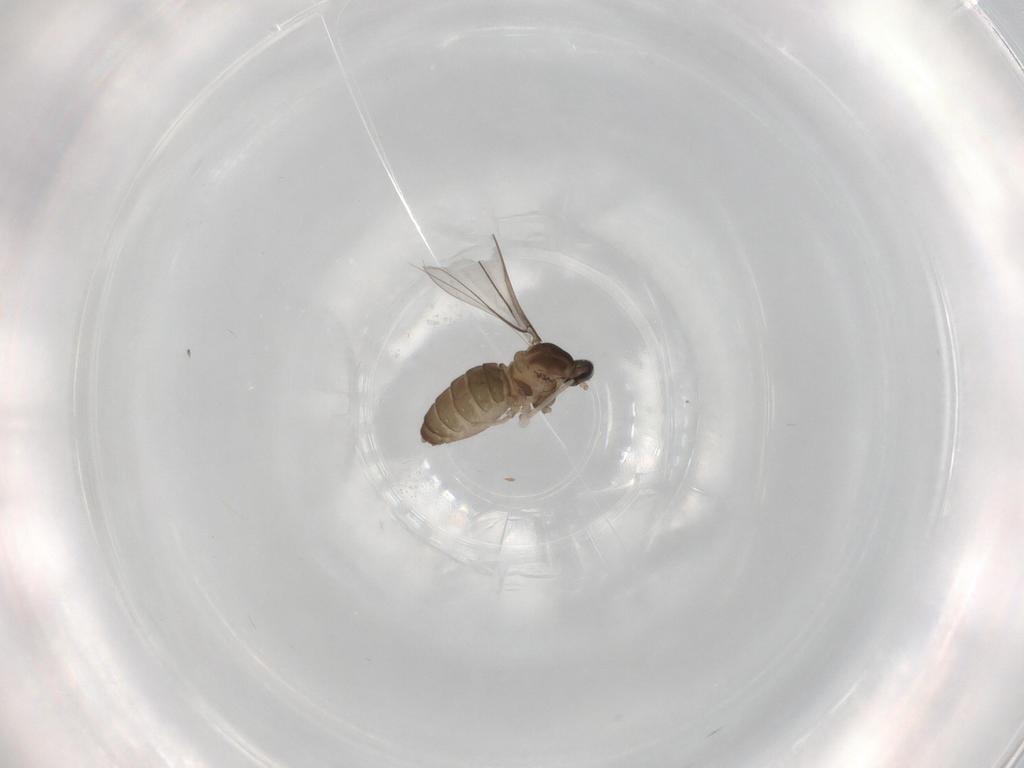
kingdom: Animalia
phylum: Arthropoda
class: Insecta
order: Diptera
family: Cecidomyiidae
